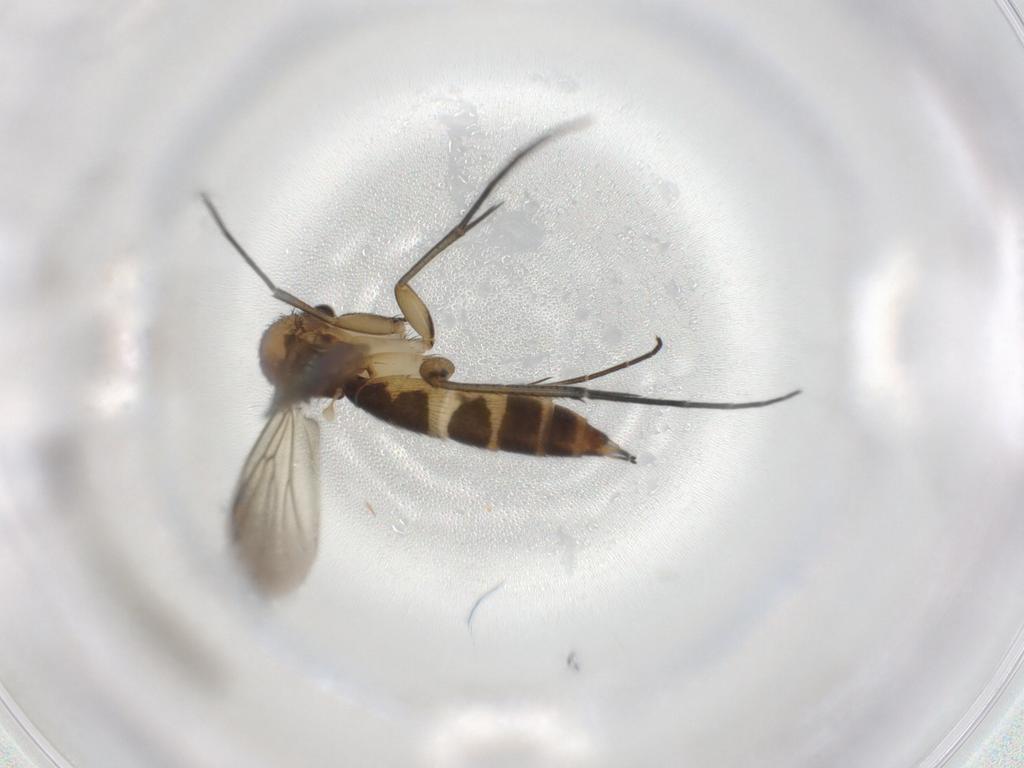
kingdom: Animalia
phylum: Arthropoda
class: Insecta
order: Diptera
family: Mycetophilidae
